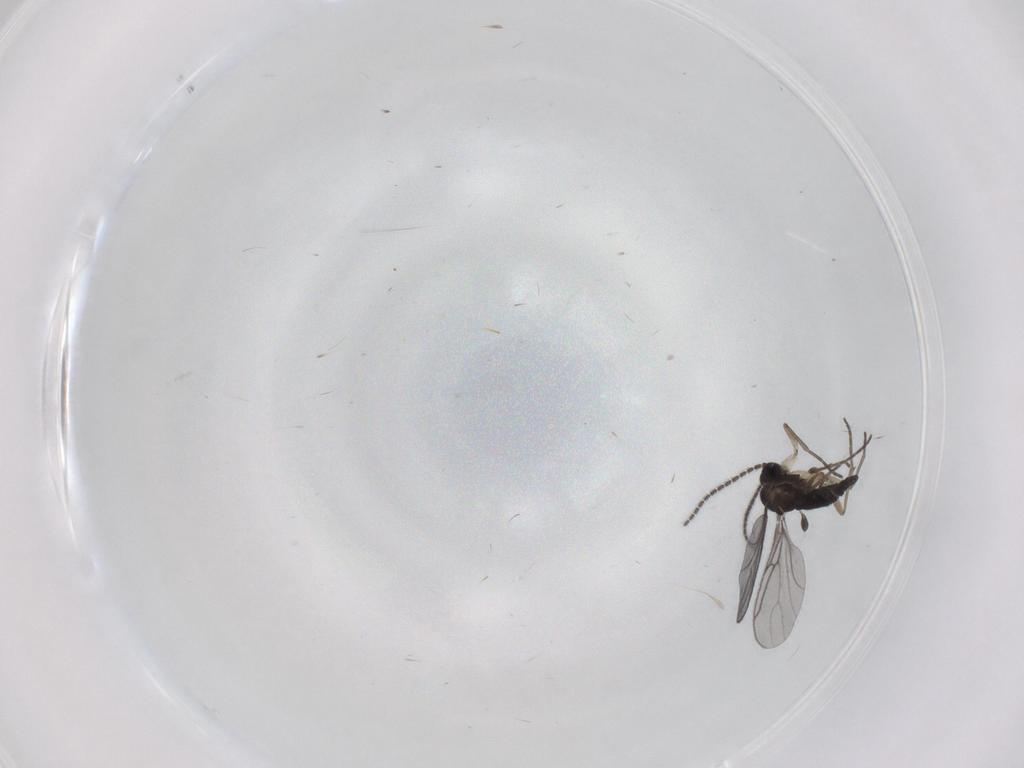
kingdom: Animalia
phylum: Arthropoda
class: Insecta
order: Diptera
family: Sciaridae
